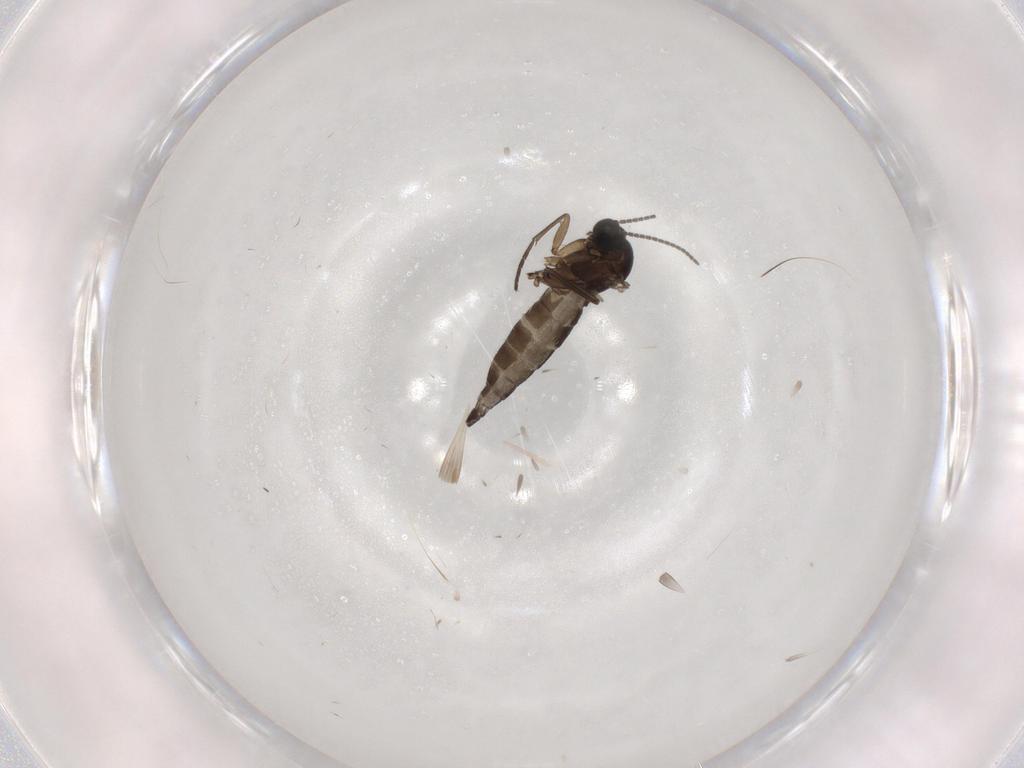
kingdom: Animalia
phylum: Arthropoda
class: Insecta
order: Diptera
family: Sciaridae
